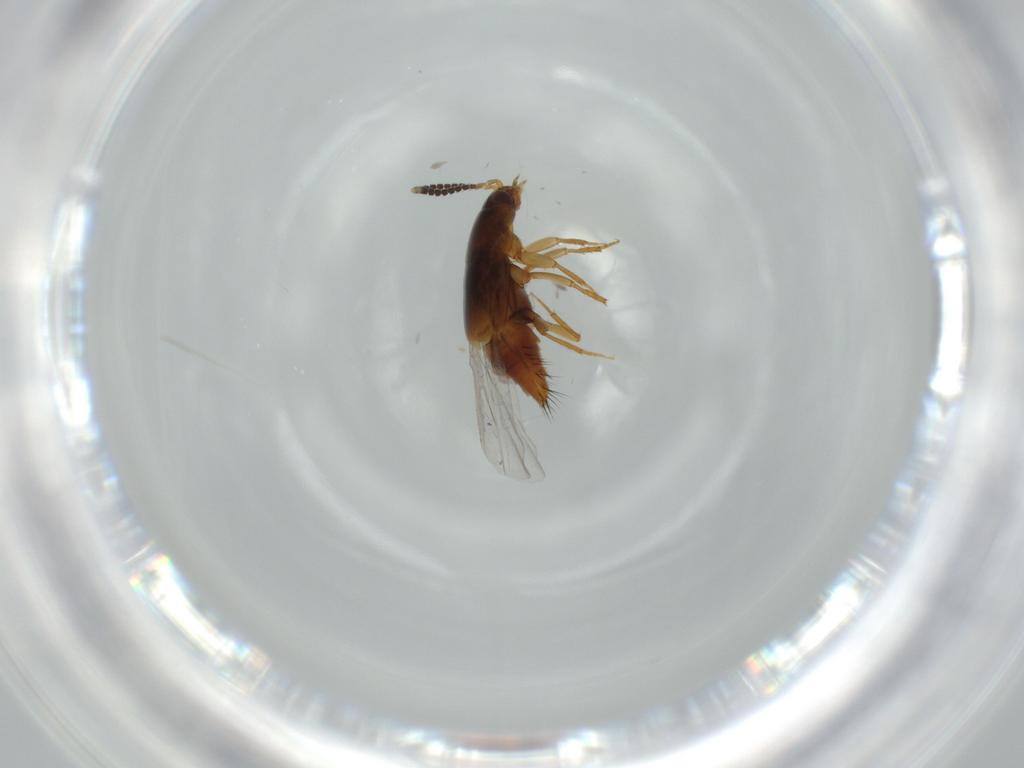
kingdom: Animalia
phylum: Arthropoda
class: Insecta
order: Coleoptera
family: Staphylinidae
